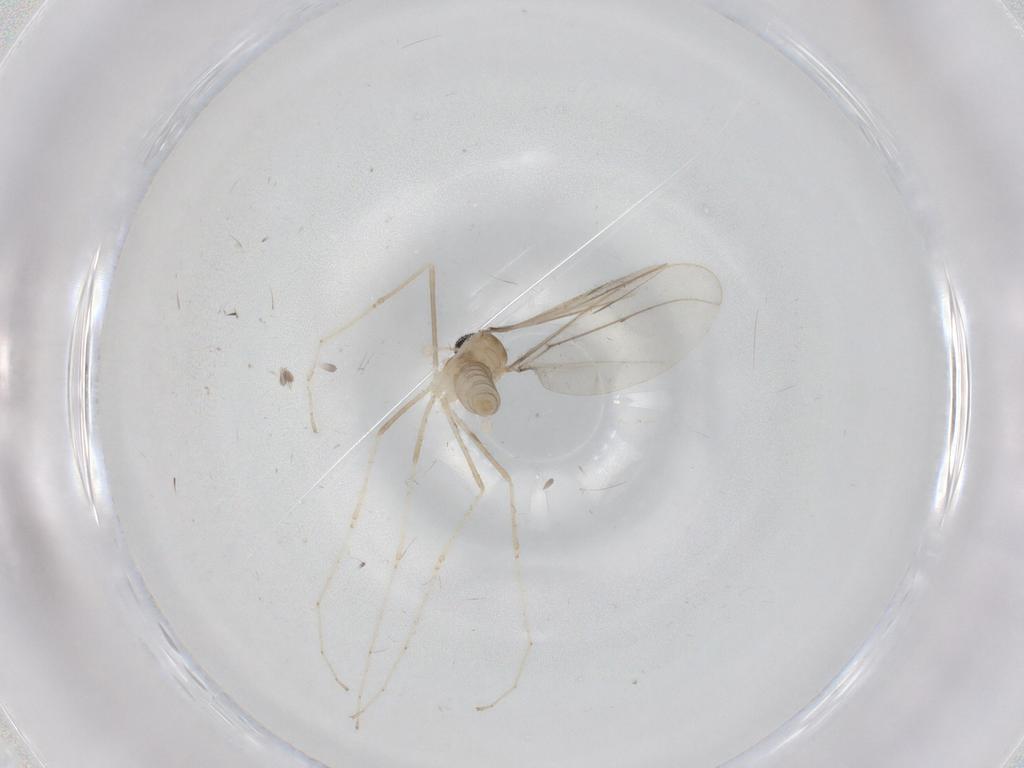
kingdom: Animalia
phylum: Arthropoda
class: Insecta
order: Diptera
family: Cecidomyiidae
